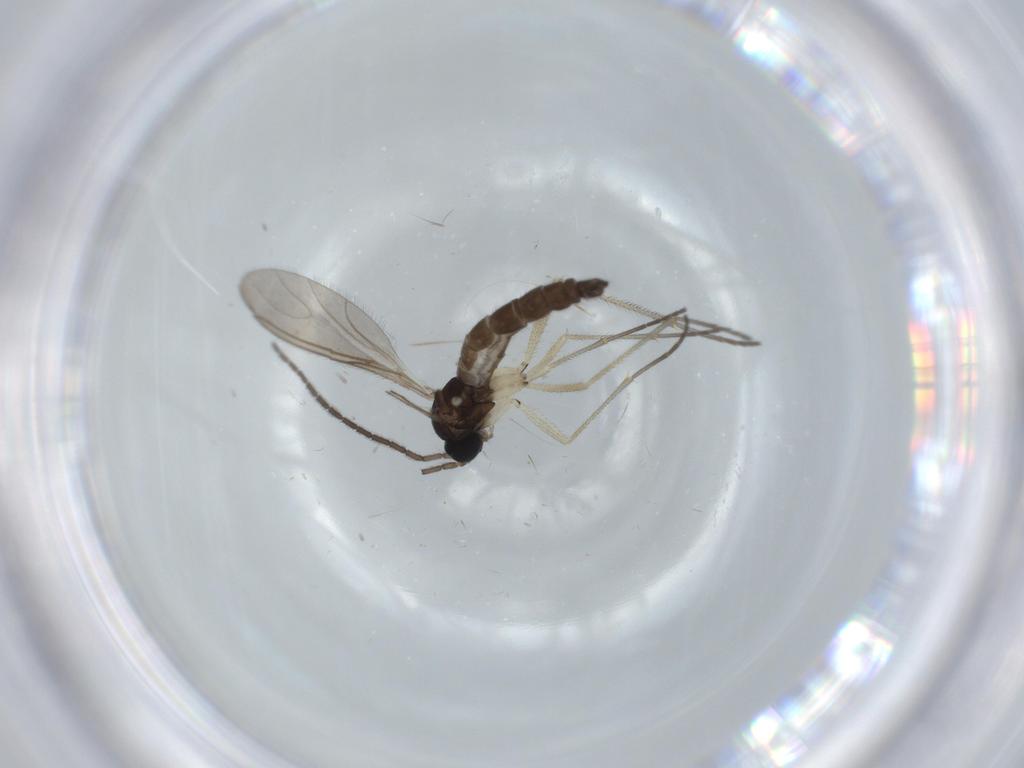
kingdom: Animalia
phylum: Arthropoda
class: Insecta
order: Diptera
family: Sciaridae
